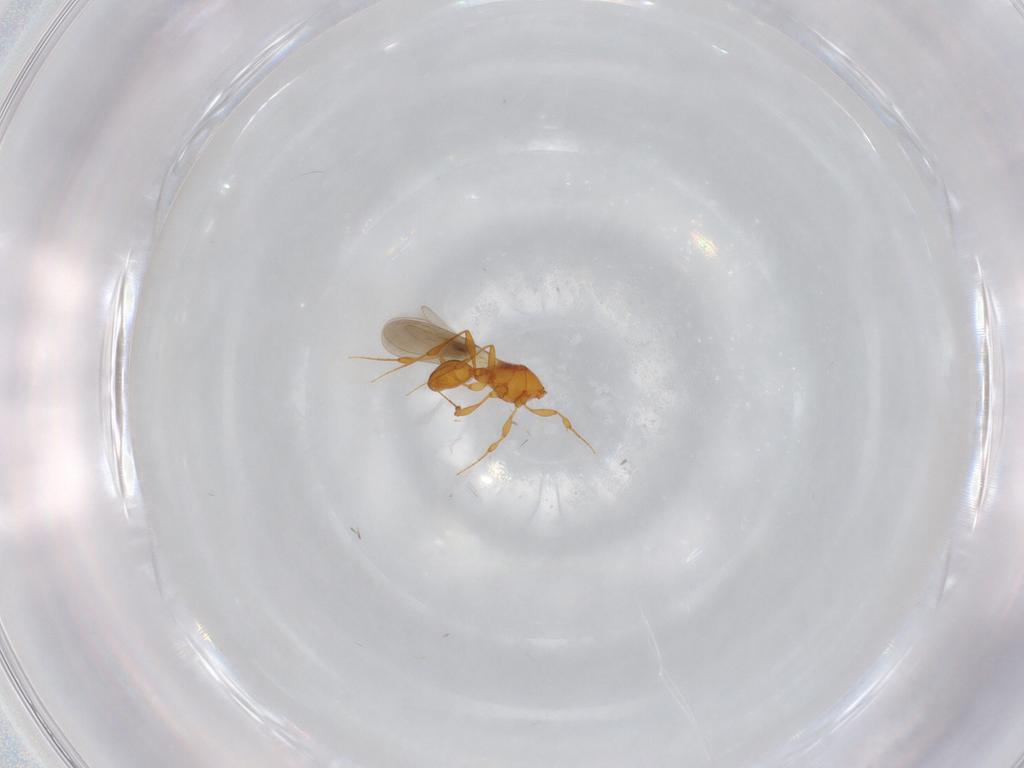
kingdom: Animalia
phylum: Arthropoda
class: Insecta
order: Hymenoptera
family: Platygastridae
